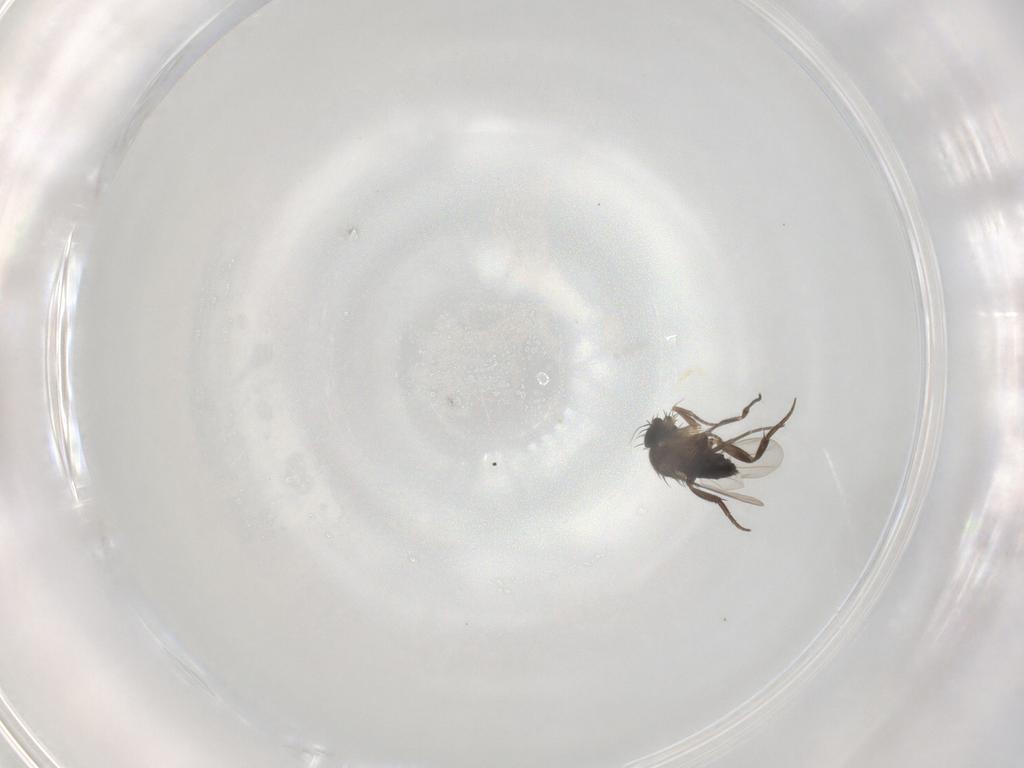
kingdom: Animalia
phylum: Arthropoda
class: Insecta
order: Diptera
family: Phoridae
